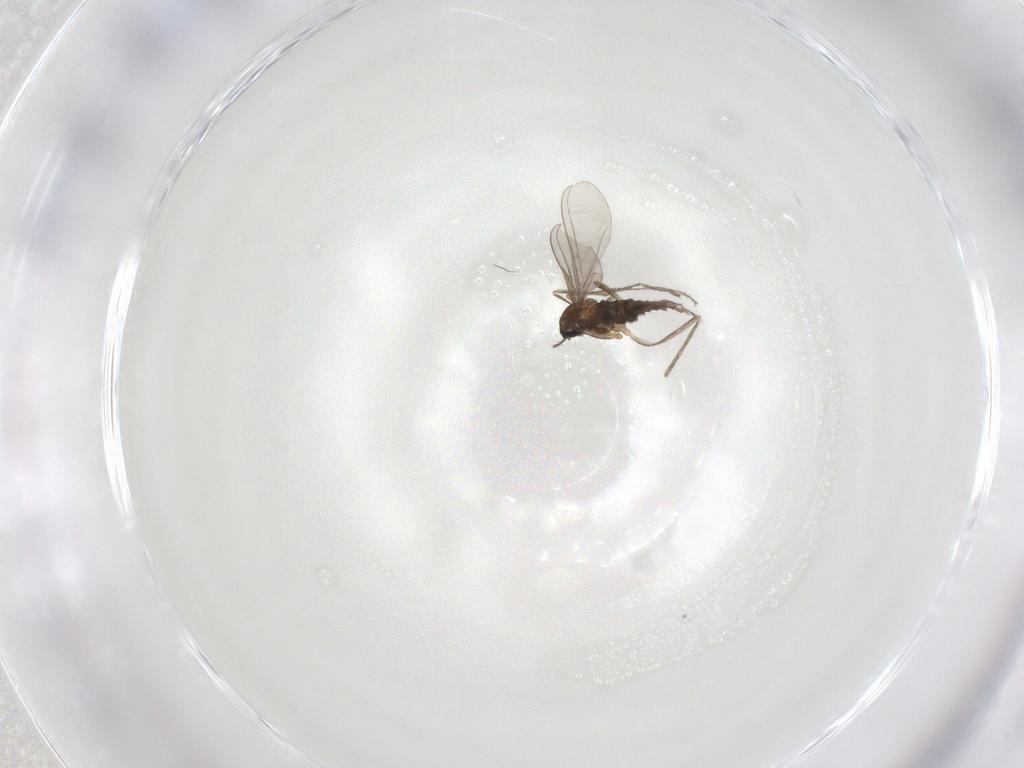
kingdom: Animalia
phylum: Arthropoda
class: Insecta
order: Diptera
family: Cecidomyiidae
